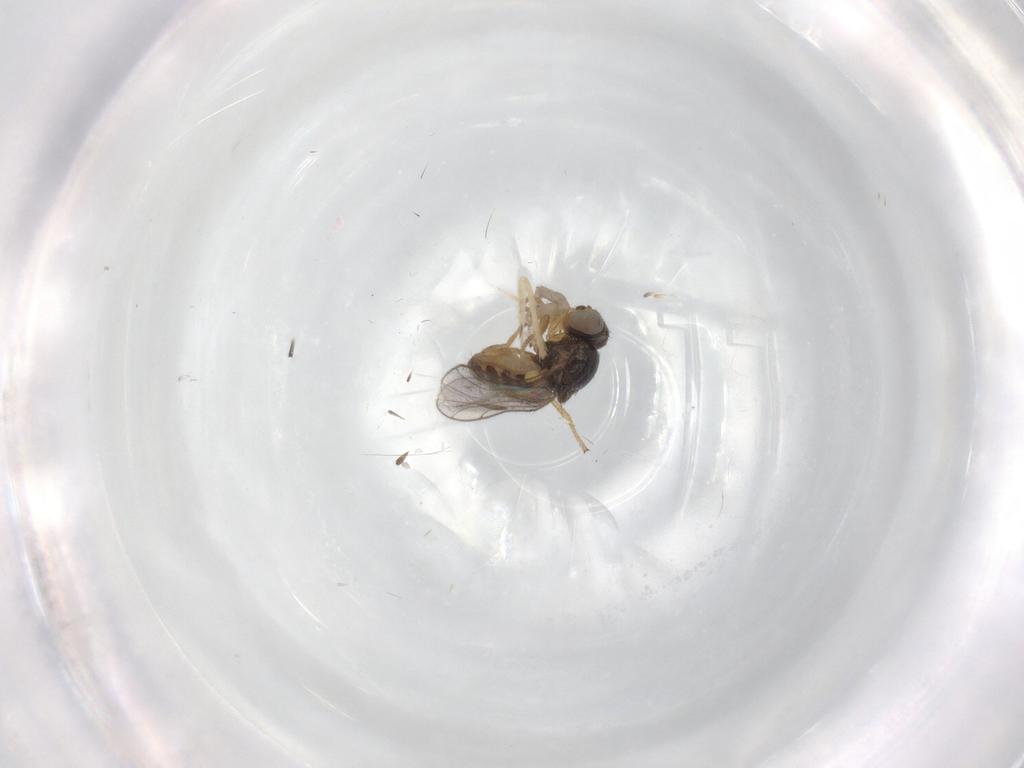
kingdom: Animalia
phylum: Arthropoda
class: Insecta
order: Diptera
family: Chloropidae
